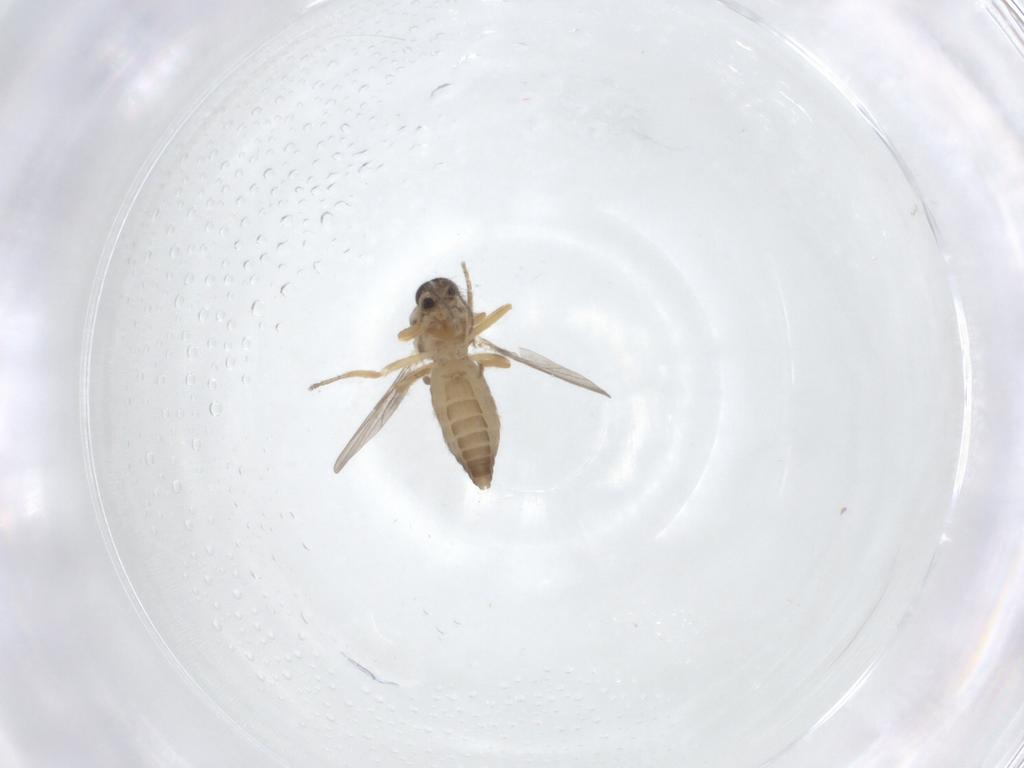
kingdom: Animalia
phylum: Arthropoda
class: Insecta
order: Diptera
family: Ceratopogonidae
